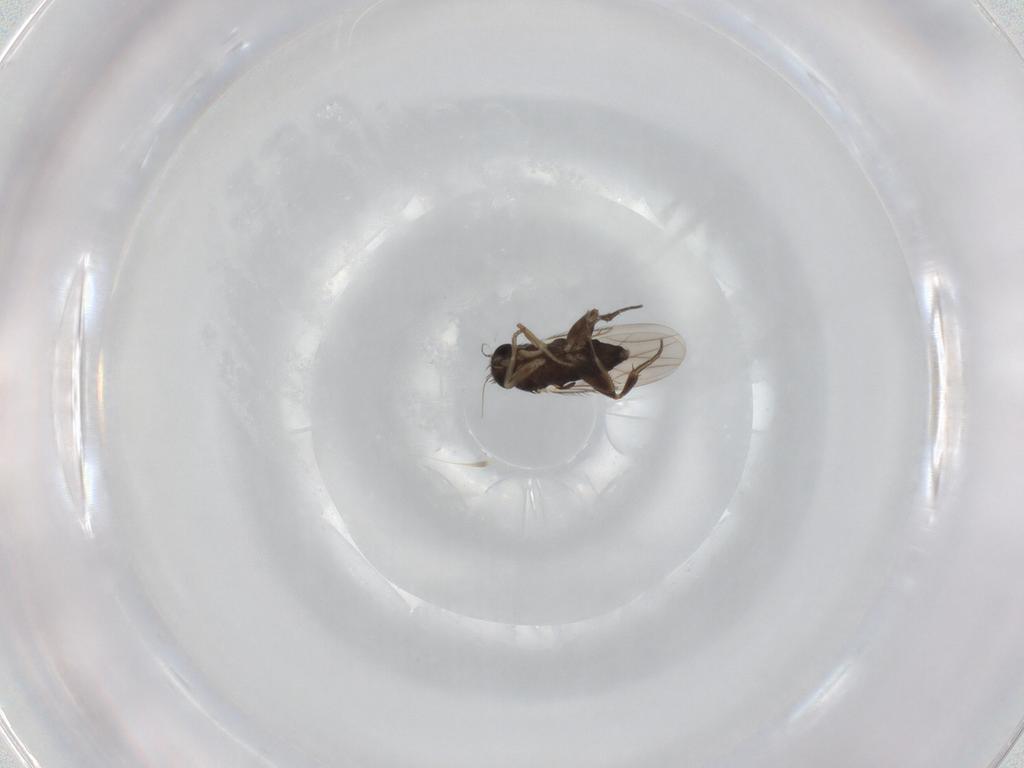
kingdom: Animalia
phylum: Arthropoda
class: Insecta
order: Diptera
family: Phoridae
